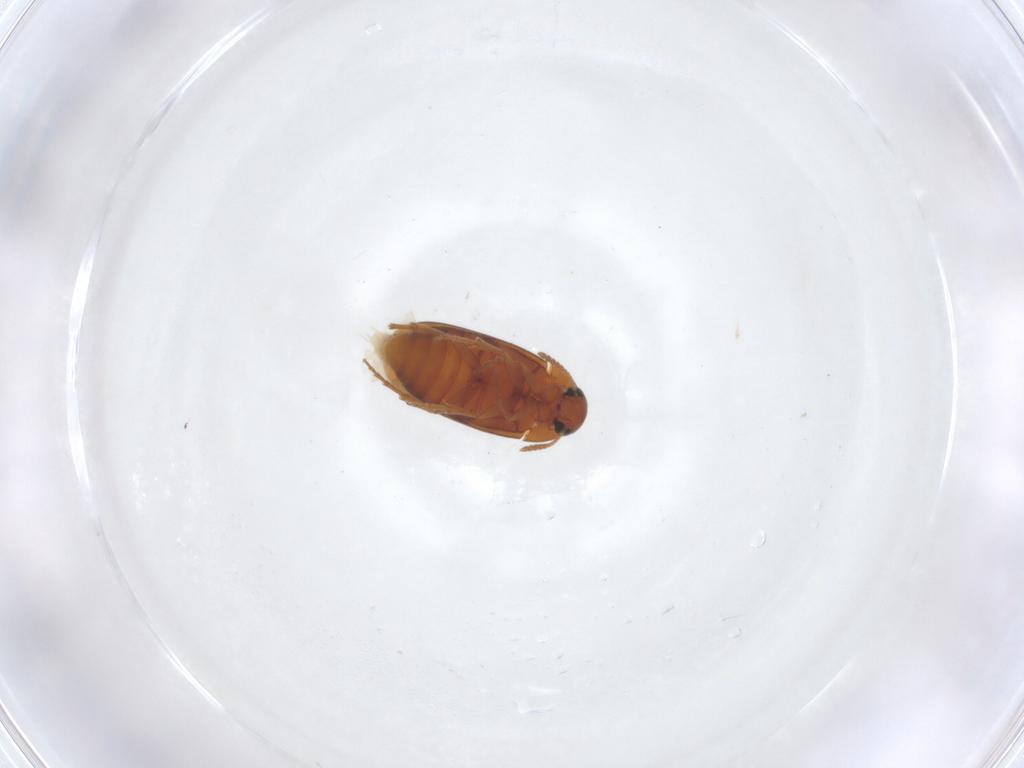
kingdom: Animalia
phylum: Arthropoda
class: Insecta
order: Coleoptera
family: Scraptiidae
